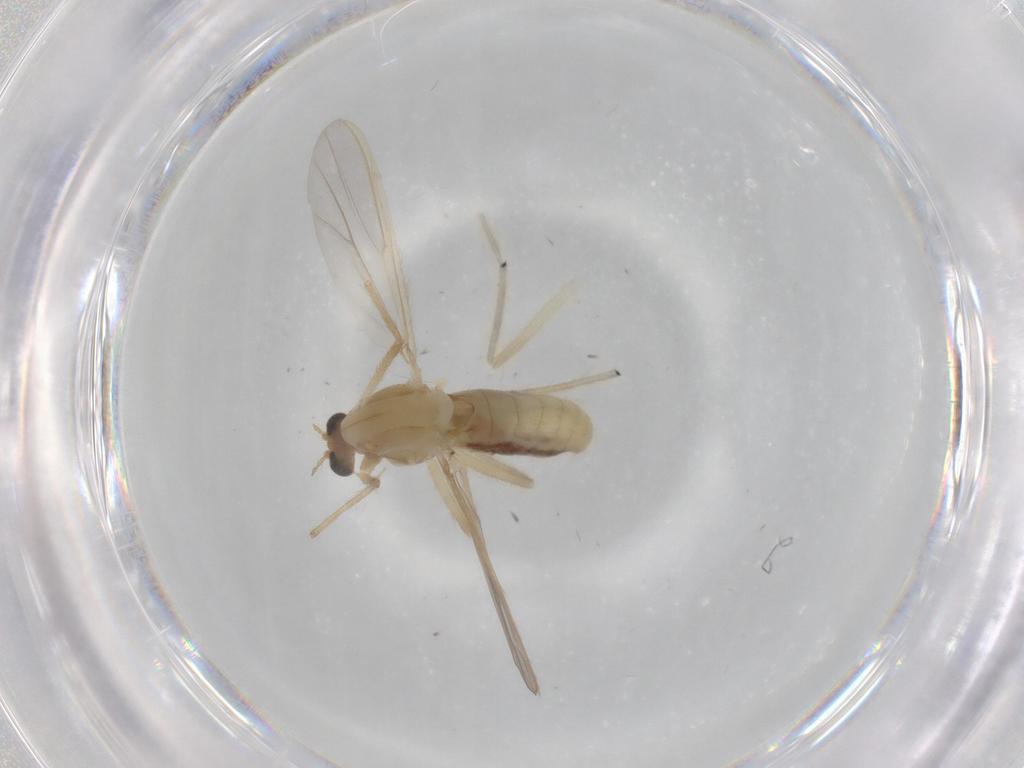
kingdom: Animalia
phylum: Arthropoda
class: Insecta
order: Diptera
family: Chironomidae
